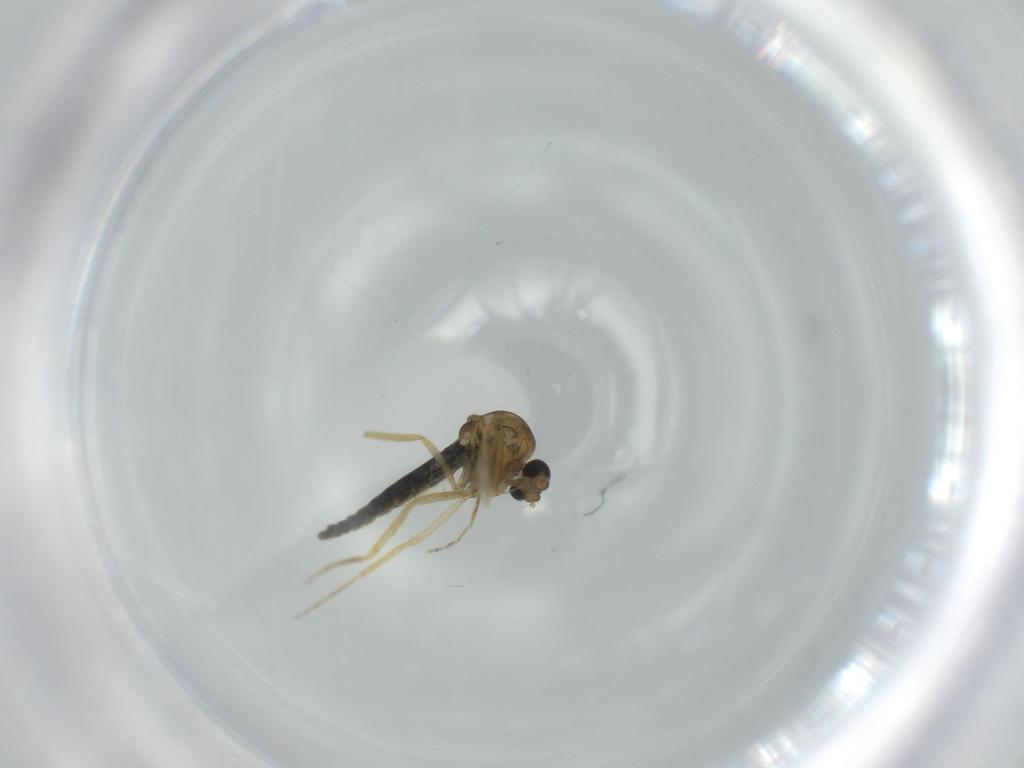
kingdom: Animalia
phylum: Arthropoda
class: Insecta
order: Diptera
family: Ceratopogonidae
